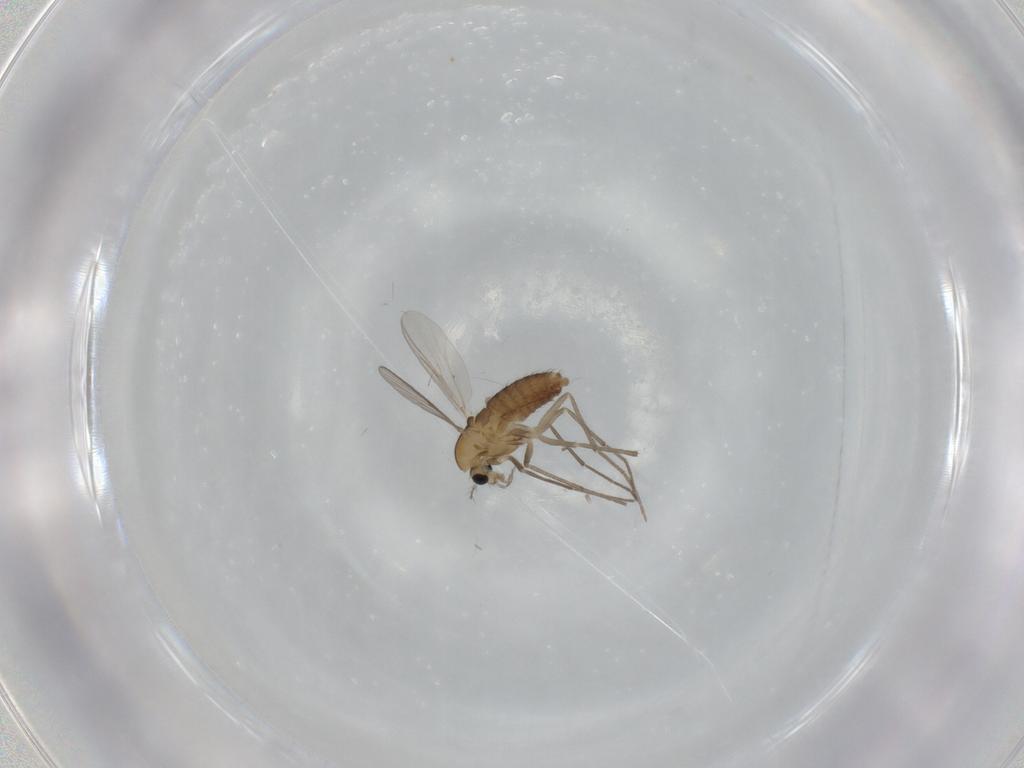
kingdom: Animalia
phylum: Arthropoda
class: Insecta
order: Diptera
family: Chironomidae
